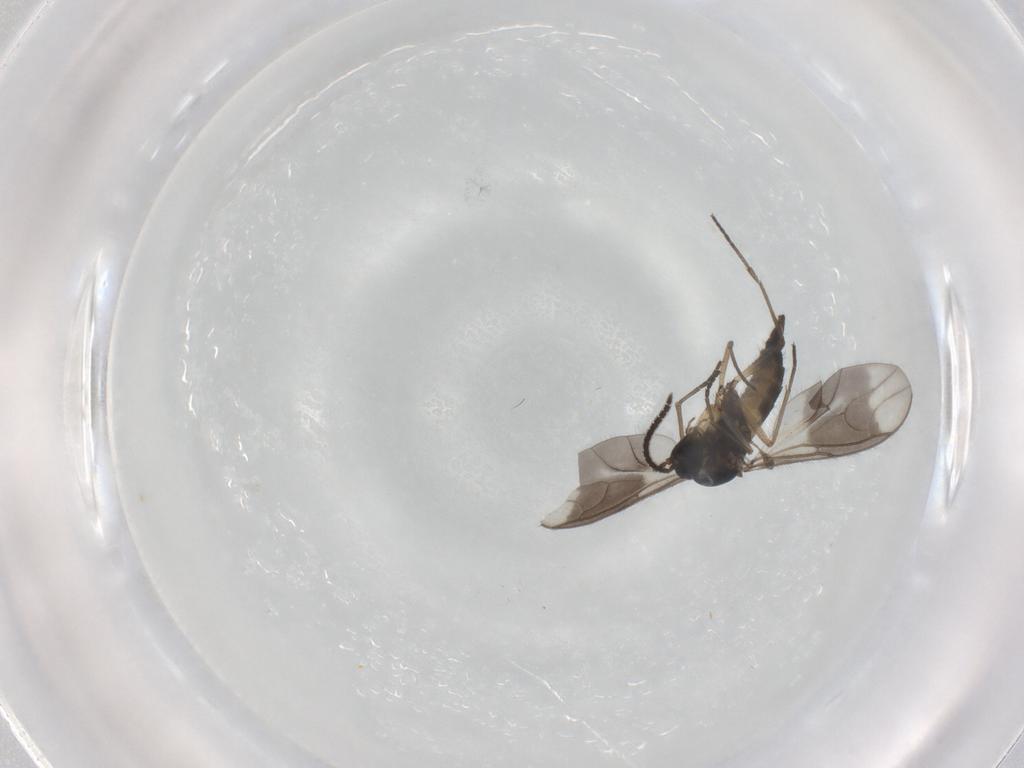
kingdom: Animalia
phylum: Arthropoda
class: Insecta
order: Diptera
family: Sciaridae
